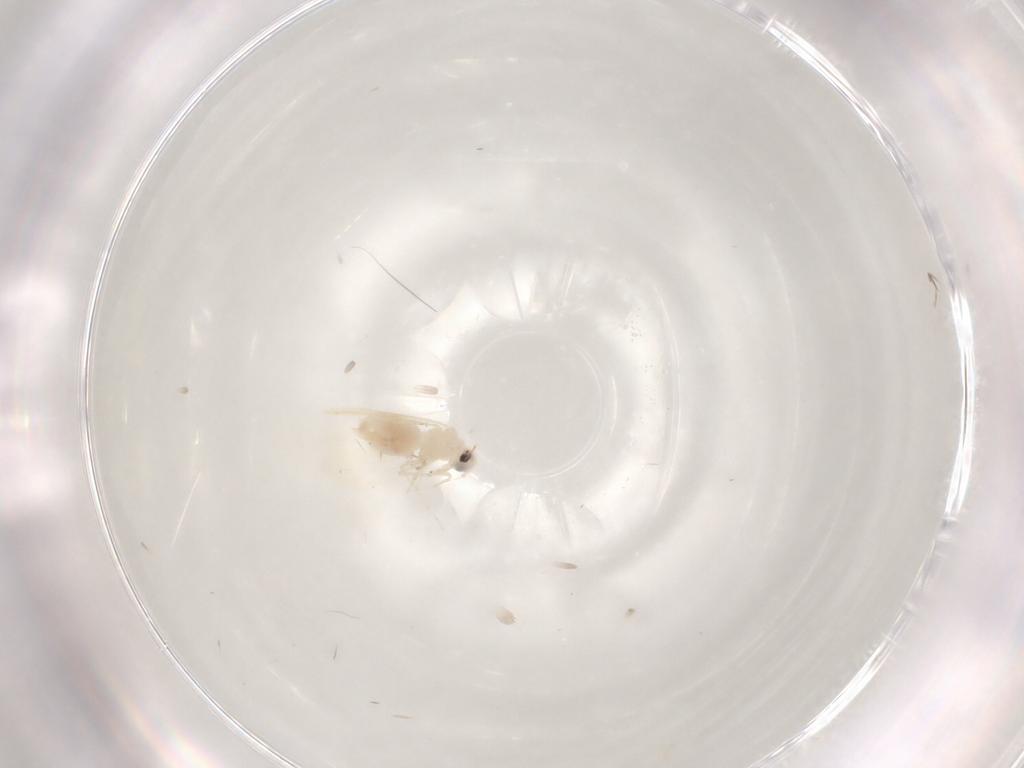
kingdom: Animalia
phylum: Arthropoda
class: Insecta
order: Hemiptera
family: Aleyrodidae
